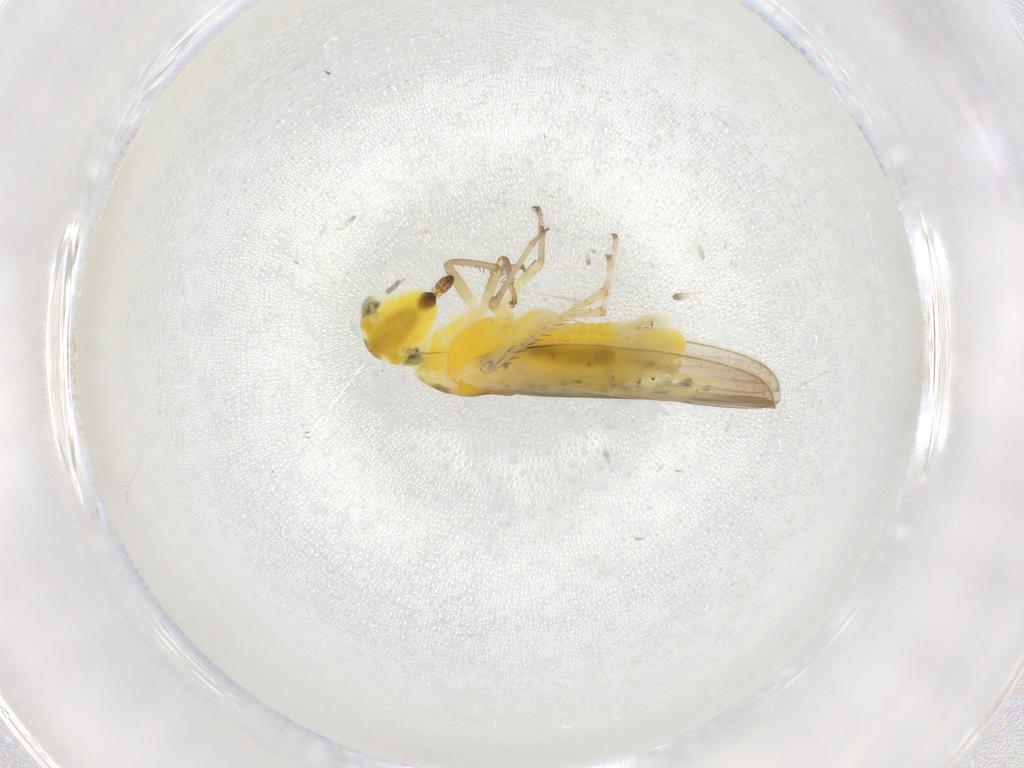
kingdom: Animalia
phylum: Arthropoda
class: Insecta
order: Hemiptera
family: Cicadellidae
